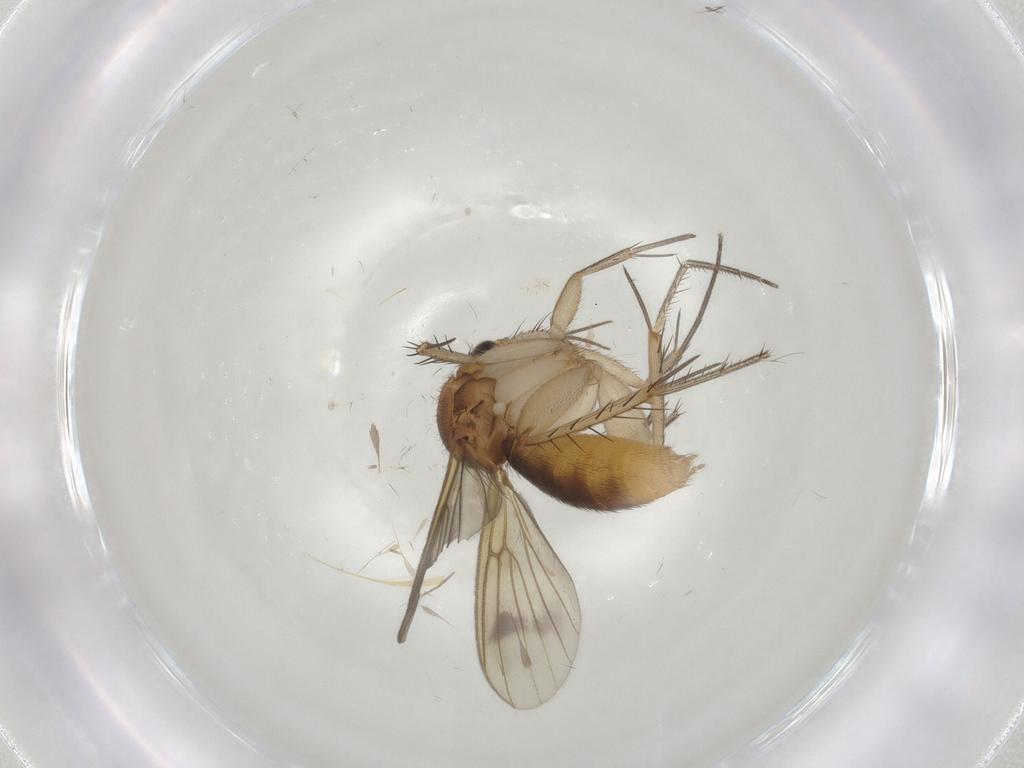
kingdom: Animalia
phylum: Arthropoda
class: Insecta
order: Diptera
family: Mycetophilidae
